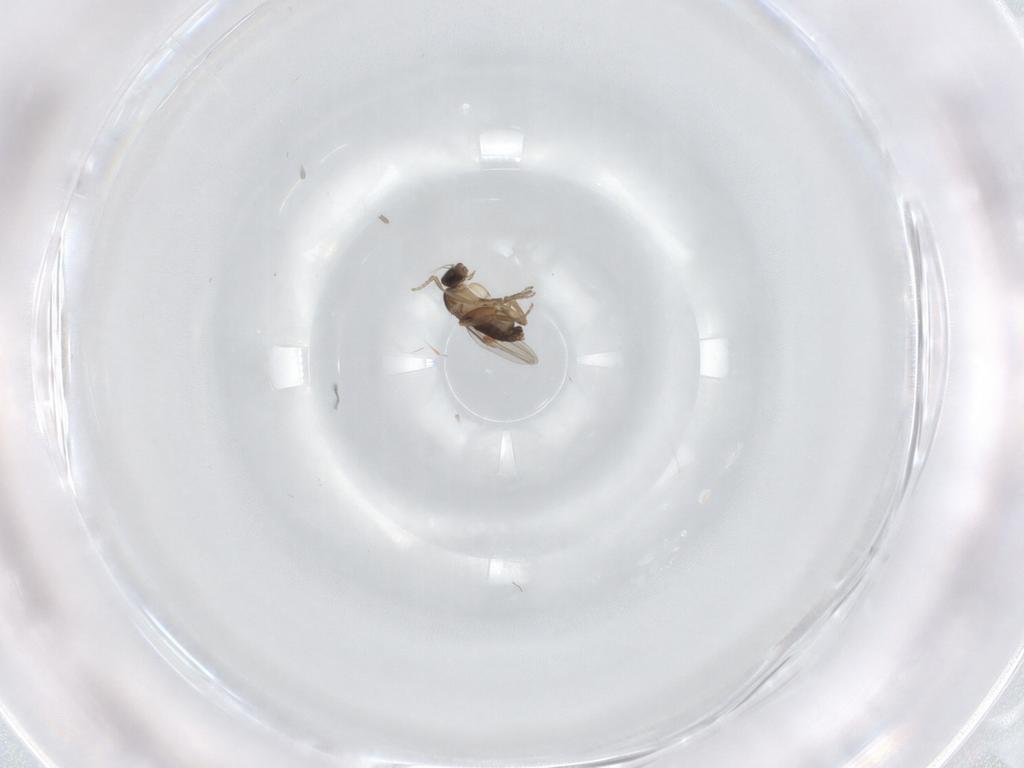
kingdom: Animalia
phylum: Arthropoda
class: Insecta
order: Diptera
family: Phoridae
